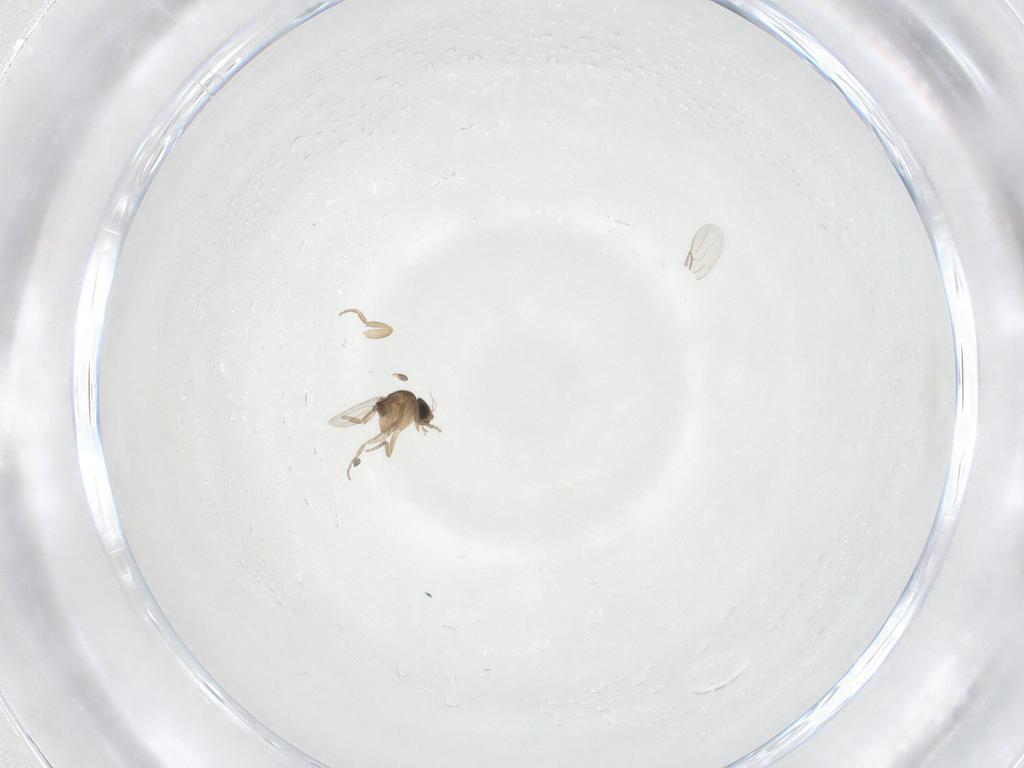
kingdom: Animalia
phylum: Arthropoda
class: Insecta
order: Diptera
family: Phoridae
